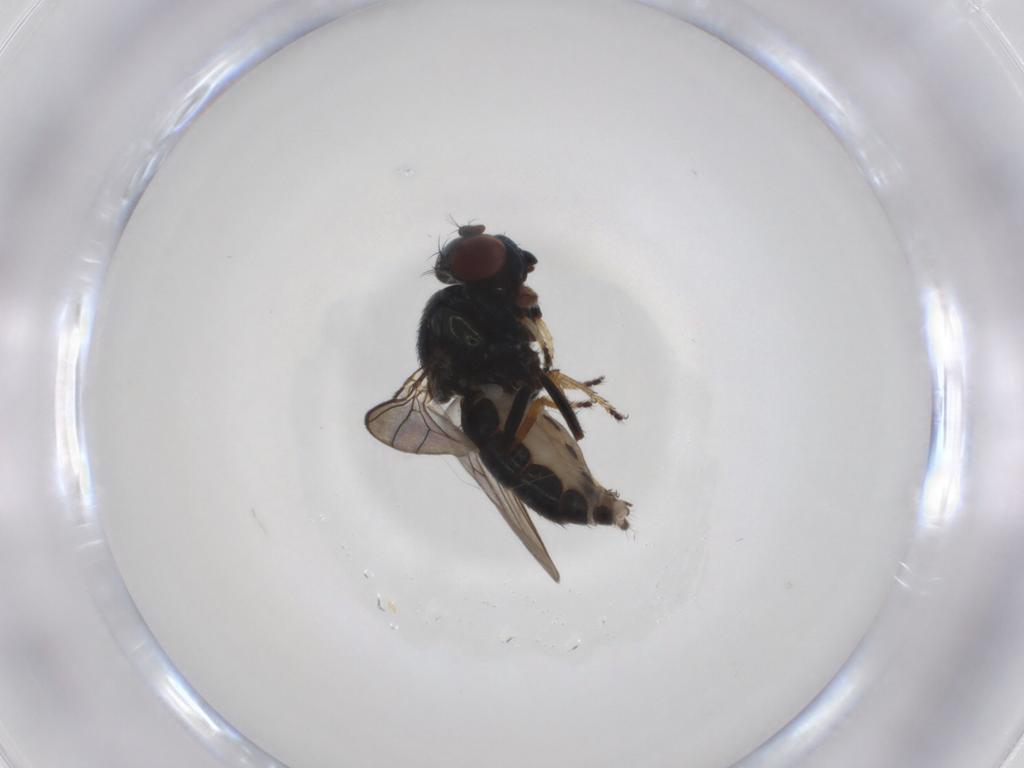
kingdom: Animalia
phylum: Arthropoda
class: Insecta
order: Diptera
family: Ephydridae
